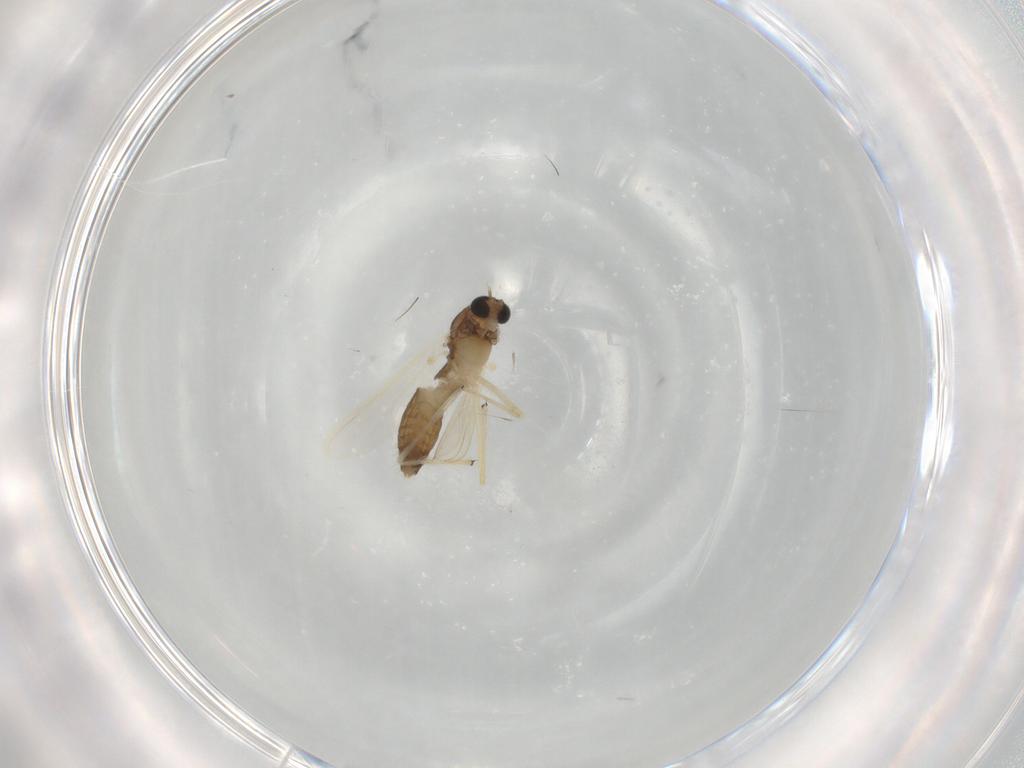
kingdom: Animalia
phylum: Arthropoda
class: Insecta
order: Diptera
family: Chironomidae
